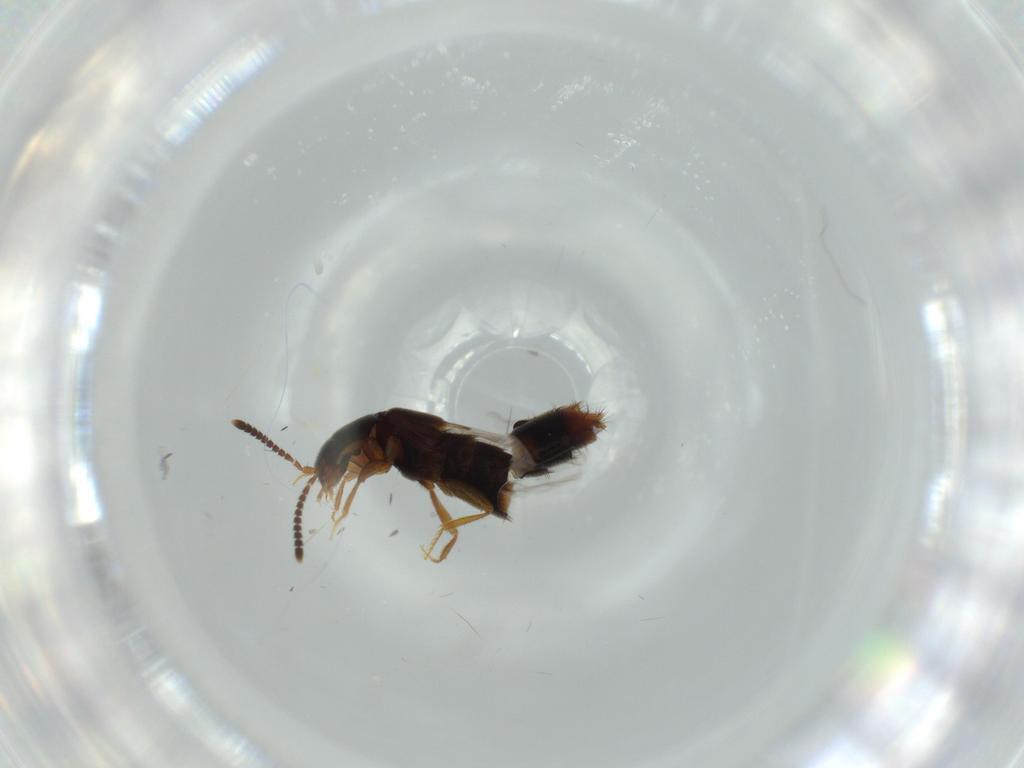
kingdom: Animalia
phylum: Arthropoda
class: Insecta
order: Coleoptera
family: Staphylinidae
